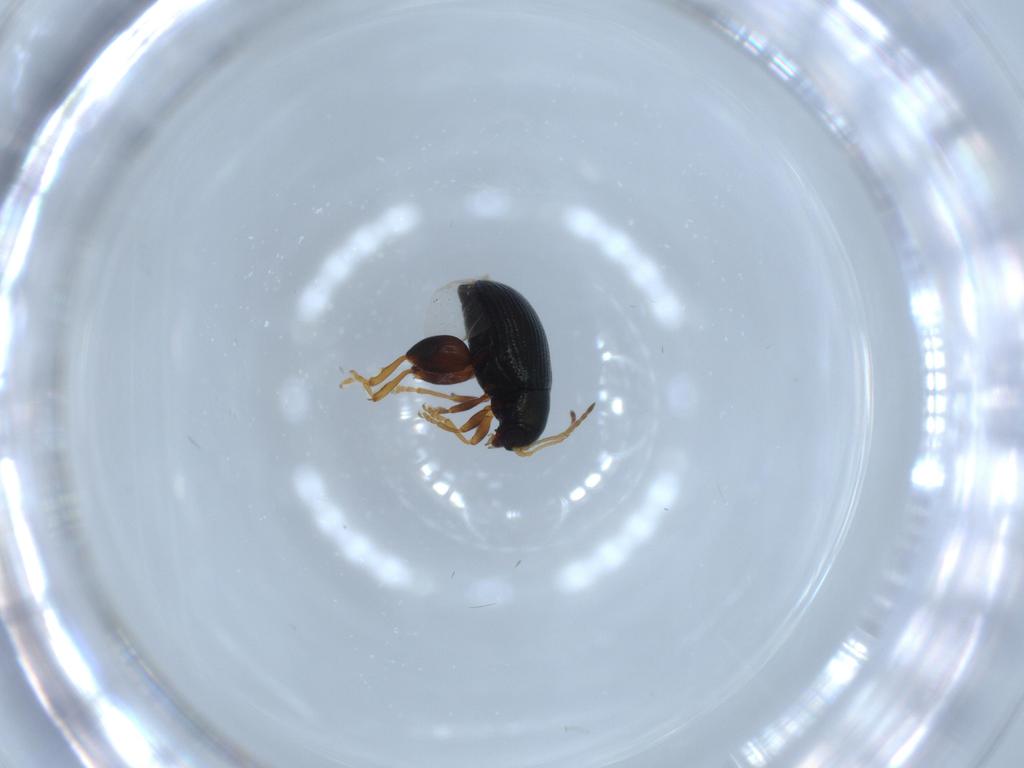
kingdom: Animalia
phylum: Arthropoda
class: Insecta
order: Coleoptera
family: Chrysomelidae
